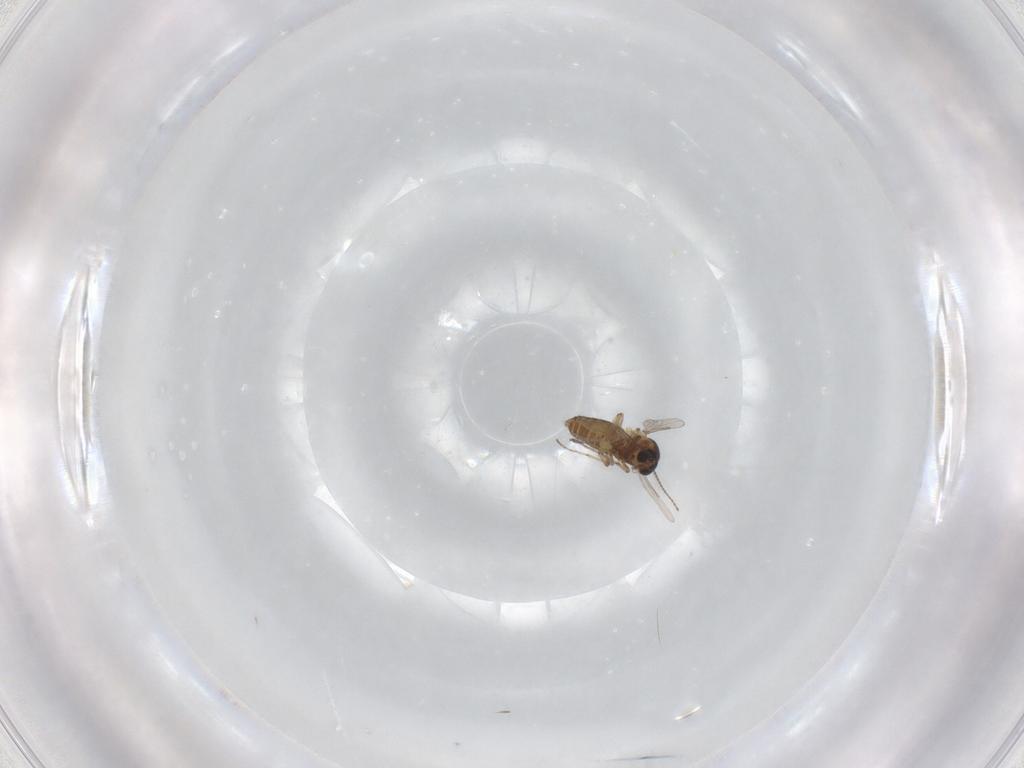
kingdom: Animalia
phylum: Arthropoda
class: Insecta
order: Diptera
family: Ceratopogonidae
